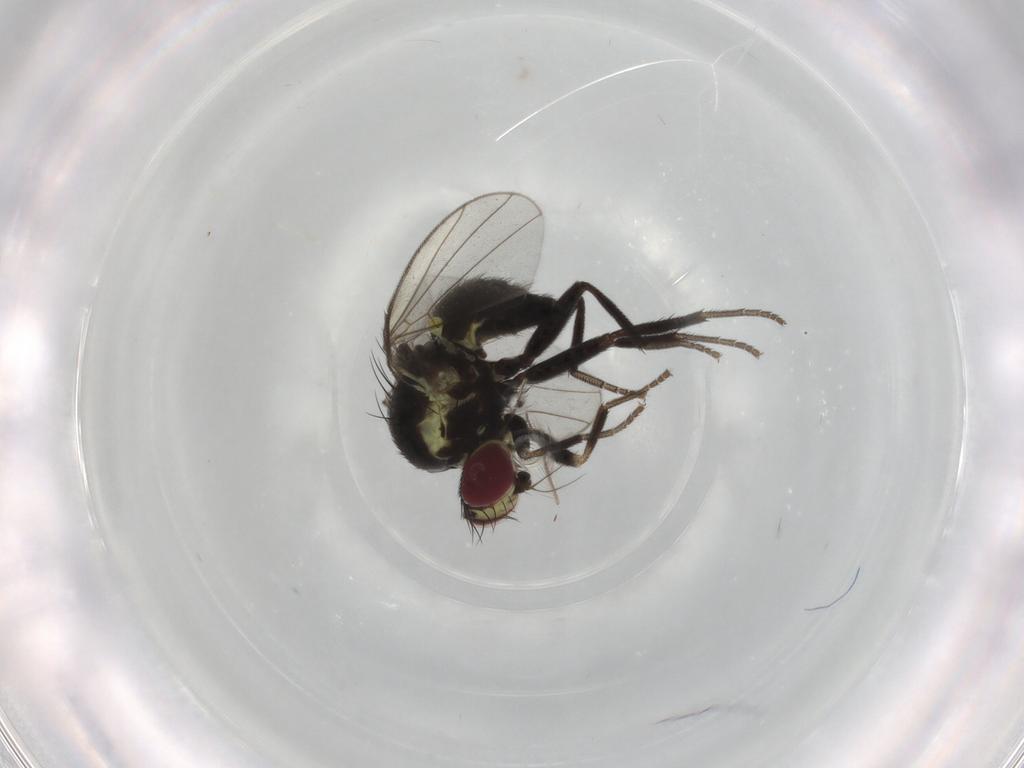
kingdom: Animalia
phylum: Arthropoda
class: Insecta
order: Diptera
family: Agromyzidae
